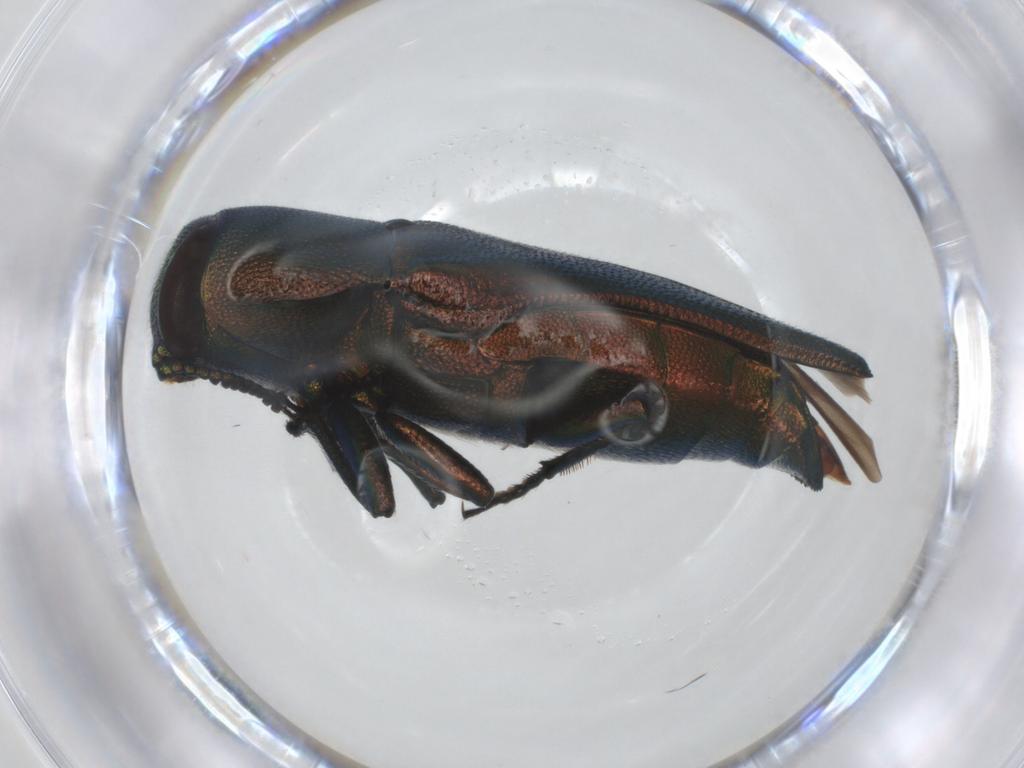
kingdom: Animalia
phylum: Arthropoda
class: Insecta
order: Coleoptera
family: Buprestidae
